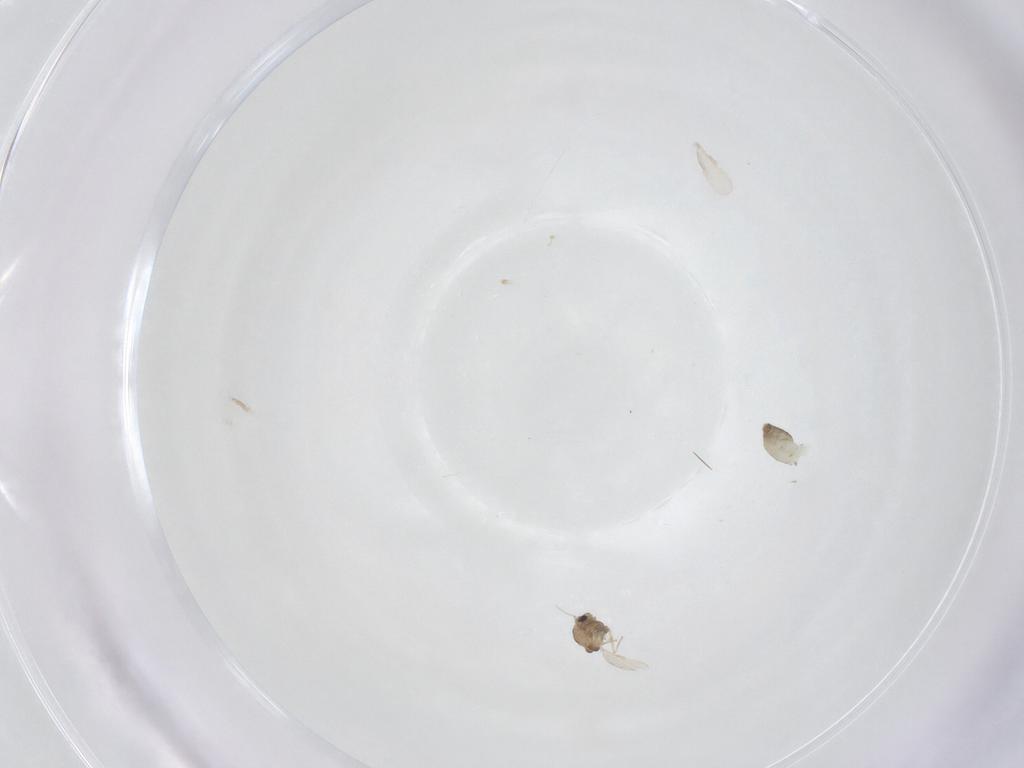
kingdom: Animalia
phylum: Arthropoda
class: Insecta
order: Diptera
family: Chironomidae
